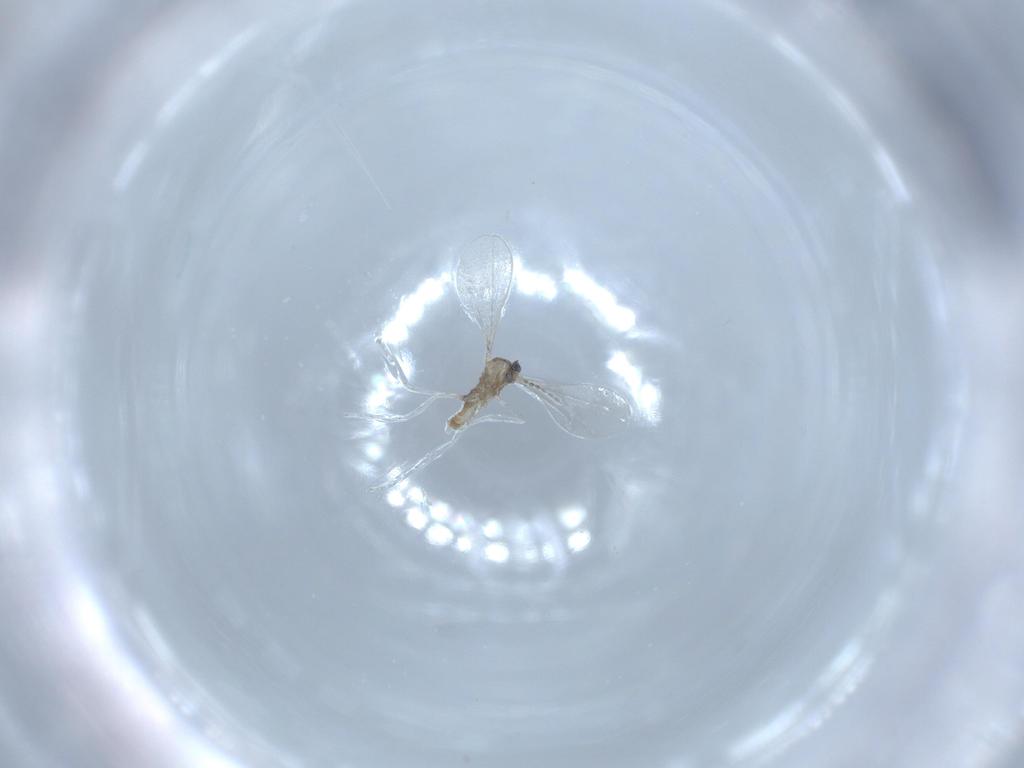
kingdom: Animalia
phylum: Arthropoda
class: Insecta
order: Diptera
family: Cecidomyiidae
